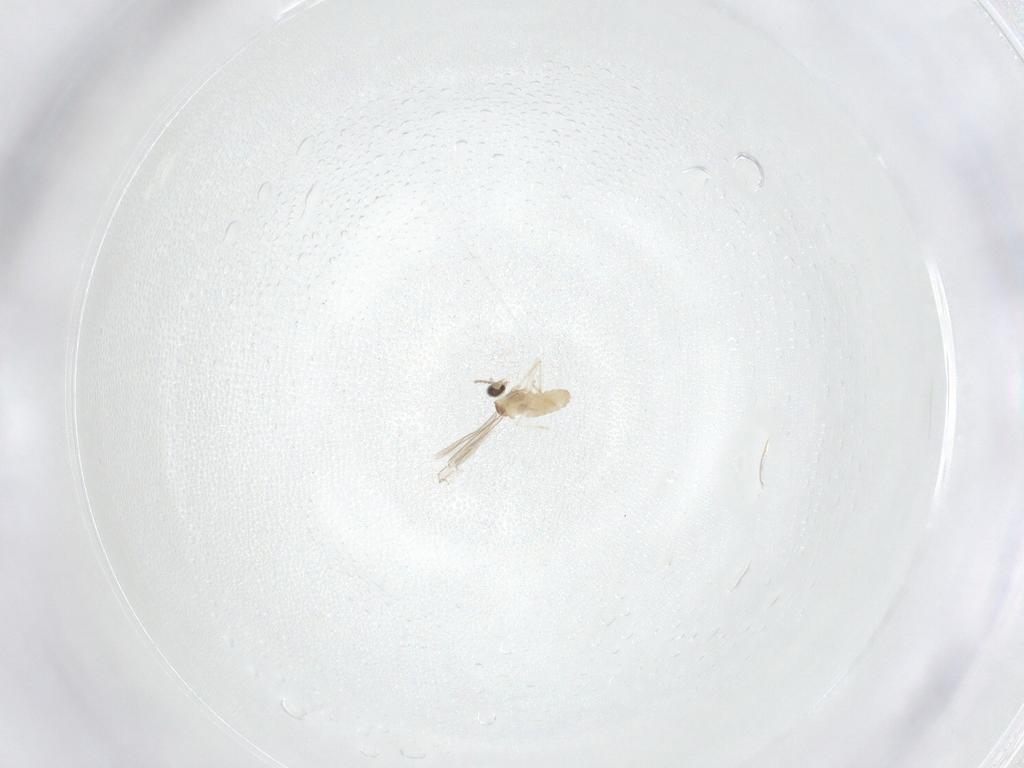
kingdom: Animalia
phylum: Arthropoda
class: Insecta
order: Diptera
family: Cecidomyiidae
